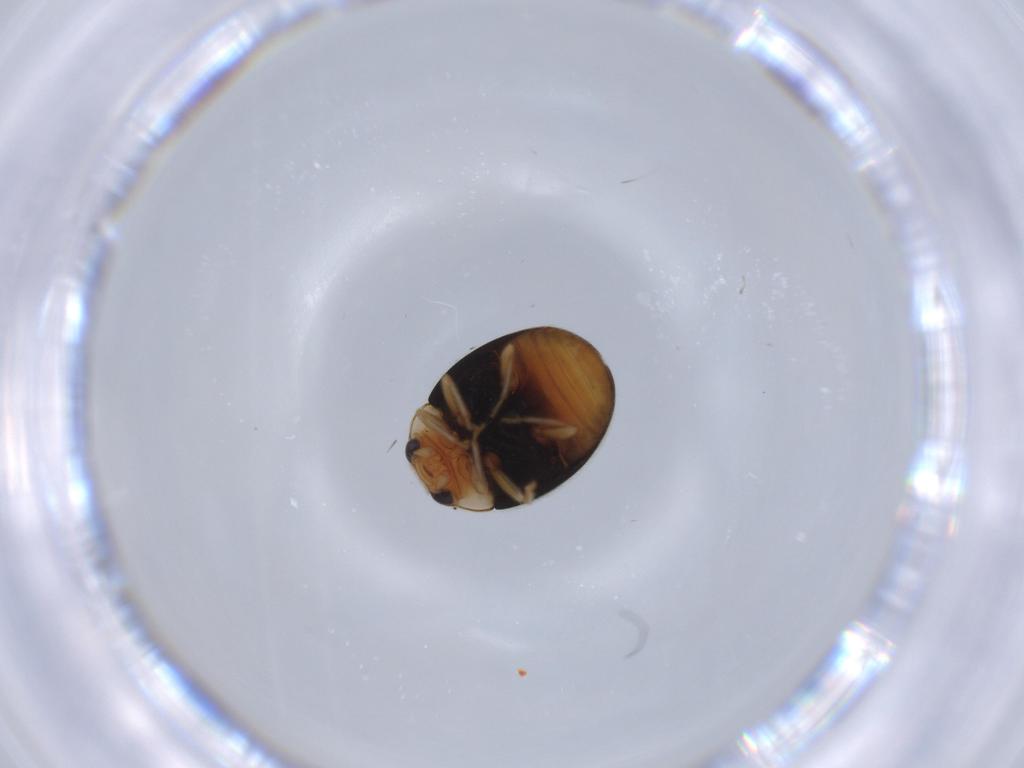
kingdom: Animalia
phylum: Arthropoda
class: Insecta
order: Coleoptera
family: Coccinellidae
